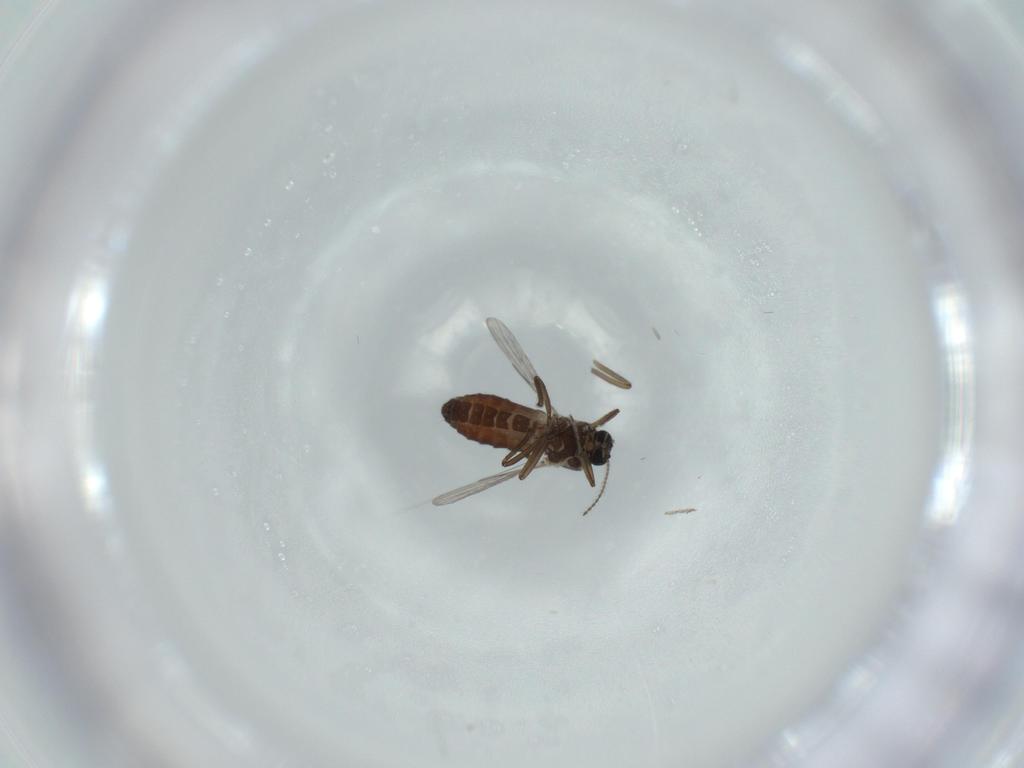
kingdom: Animalia
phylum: Arthropoda
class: Insecta
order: Diptera
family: Ceratopogonidae
